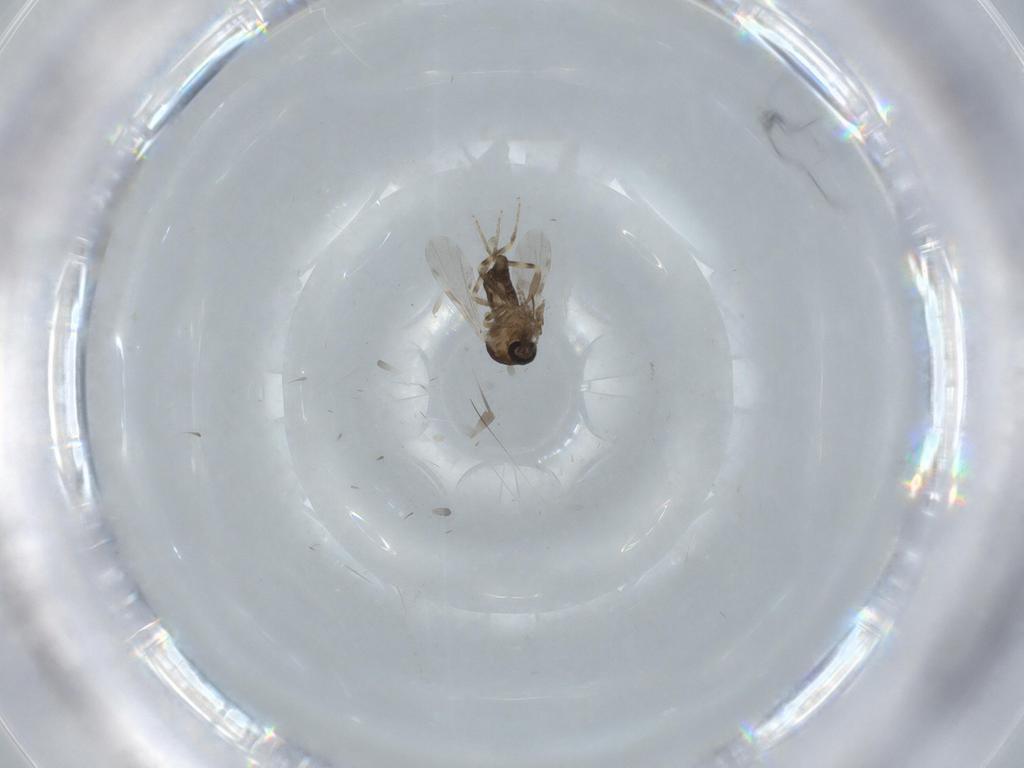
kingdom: Animalia
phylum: Arthropoda
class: Insecta
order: Diptera
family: Ceratopogonidae
